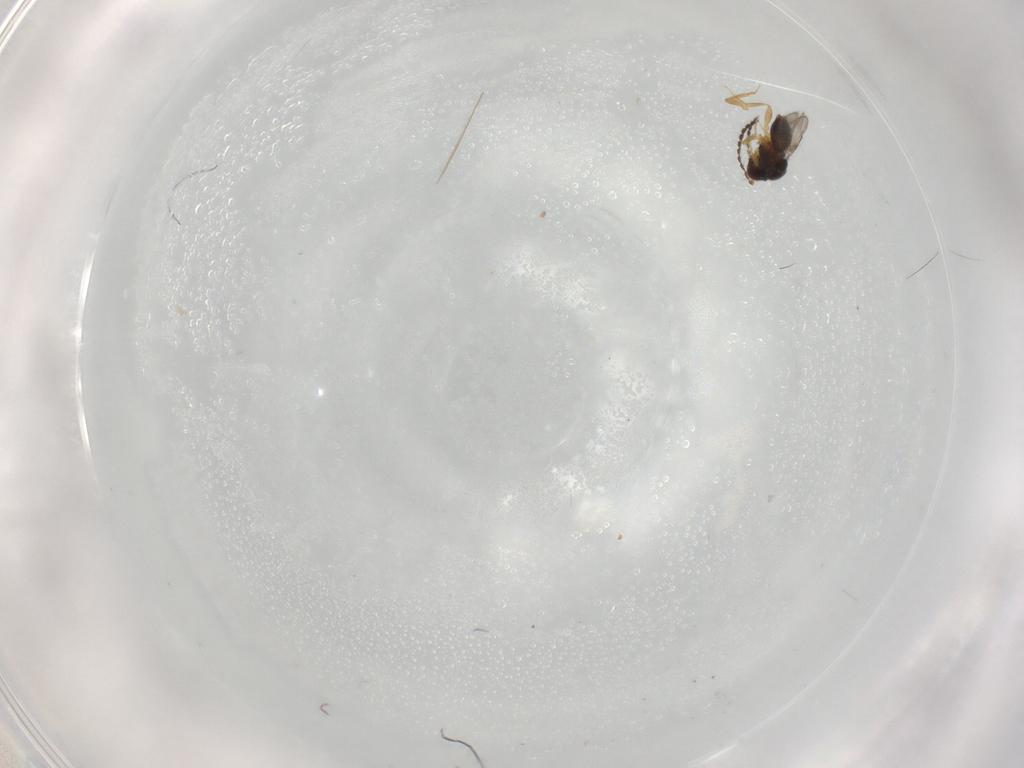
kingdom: Animalia
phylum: Arthropoda
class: Insecta
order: Hymenoptera
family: Ceraphronidae
